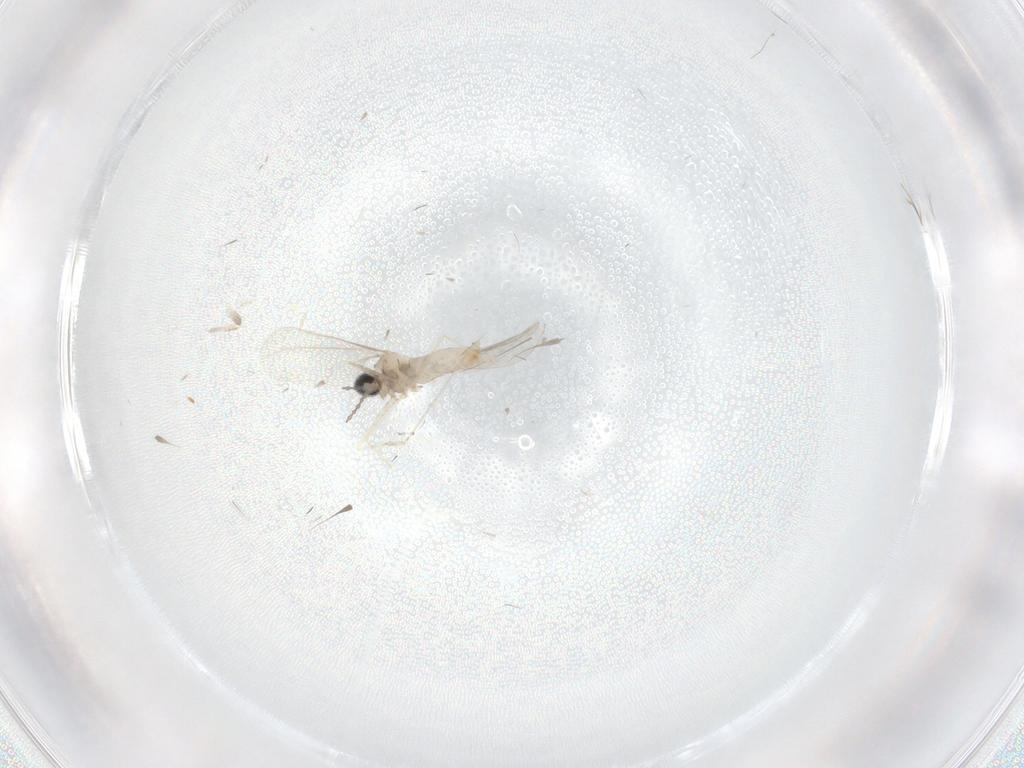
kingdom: Animalia
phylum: Arthropoda
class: Insecta
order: Diptera
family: Cecidomyiidae
